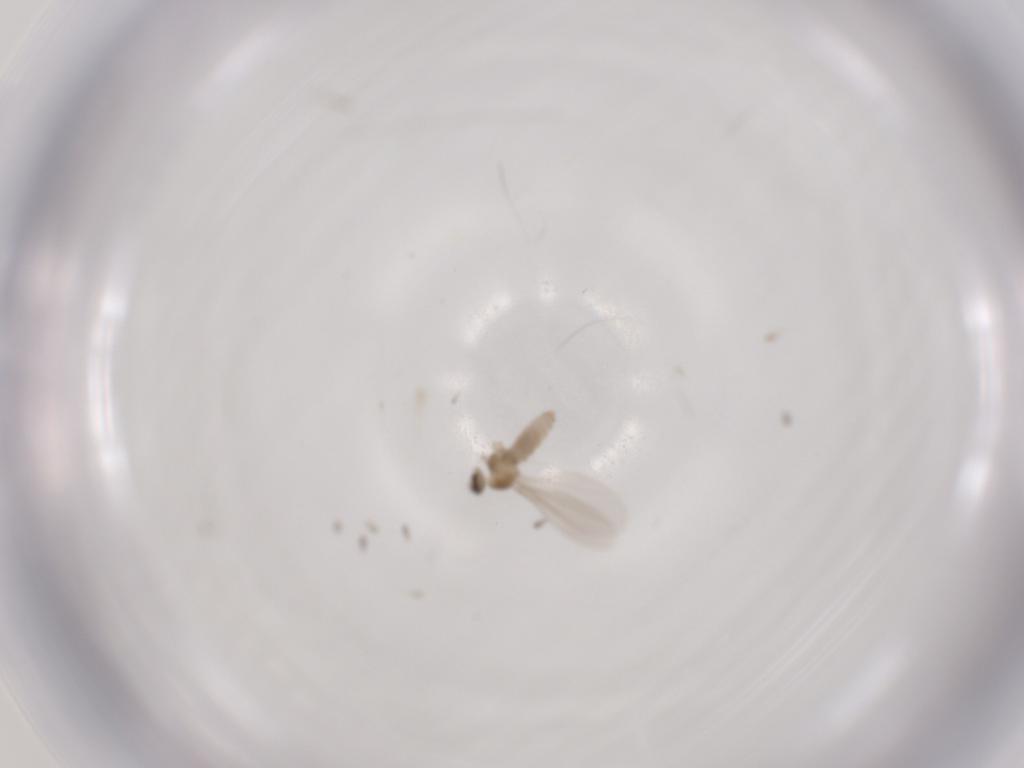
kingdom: Animalia
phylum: Arthropoda
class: Insecta
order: Diptera
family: Cecidomyiidae
